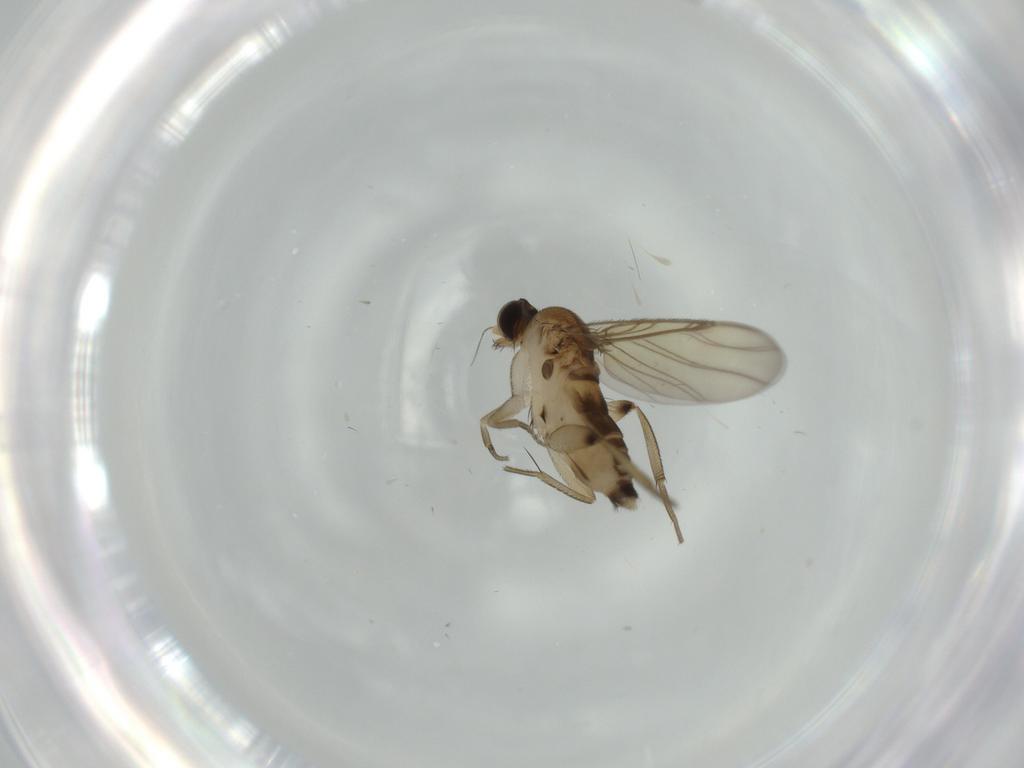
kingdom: Animalia
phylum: Arthropoda
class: Insecta
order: Diptera
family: Phoridae
